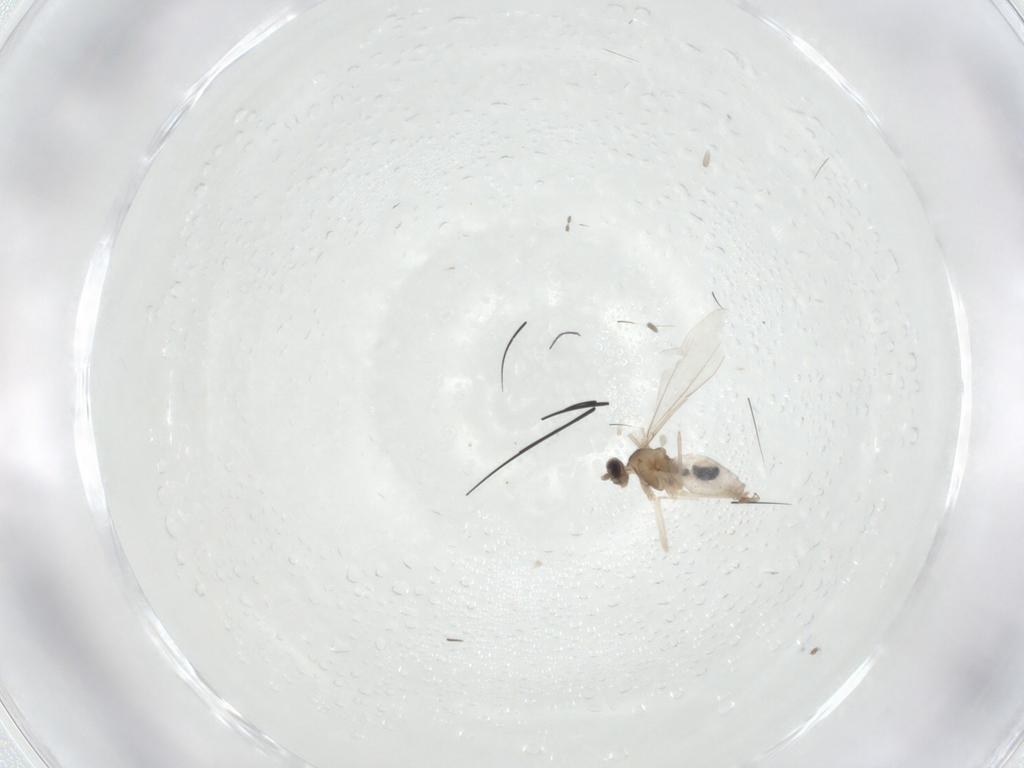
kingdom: Animalia
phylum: Arthropoda
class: Insecta
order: Diptera
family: Cecidomyiidae
